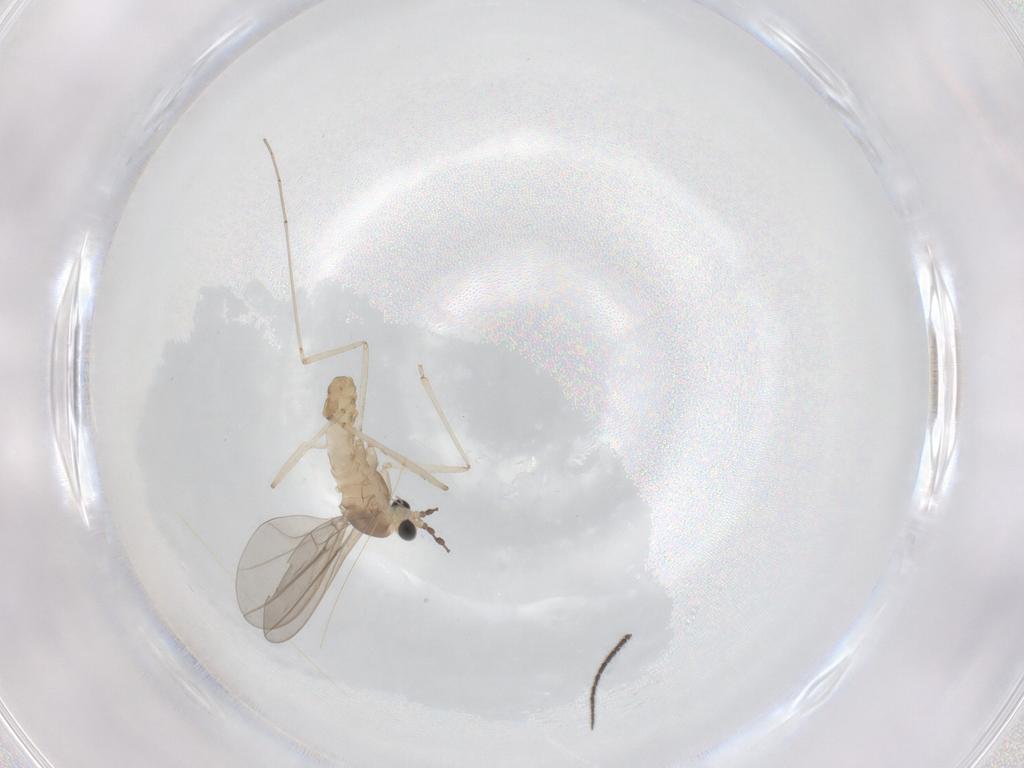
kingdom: Animalia
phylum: Arthropoda
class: Insecta
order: Diptera
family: Cecidomyiidae
